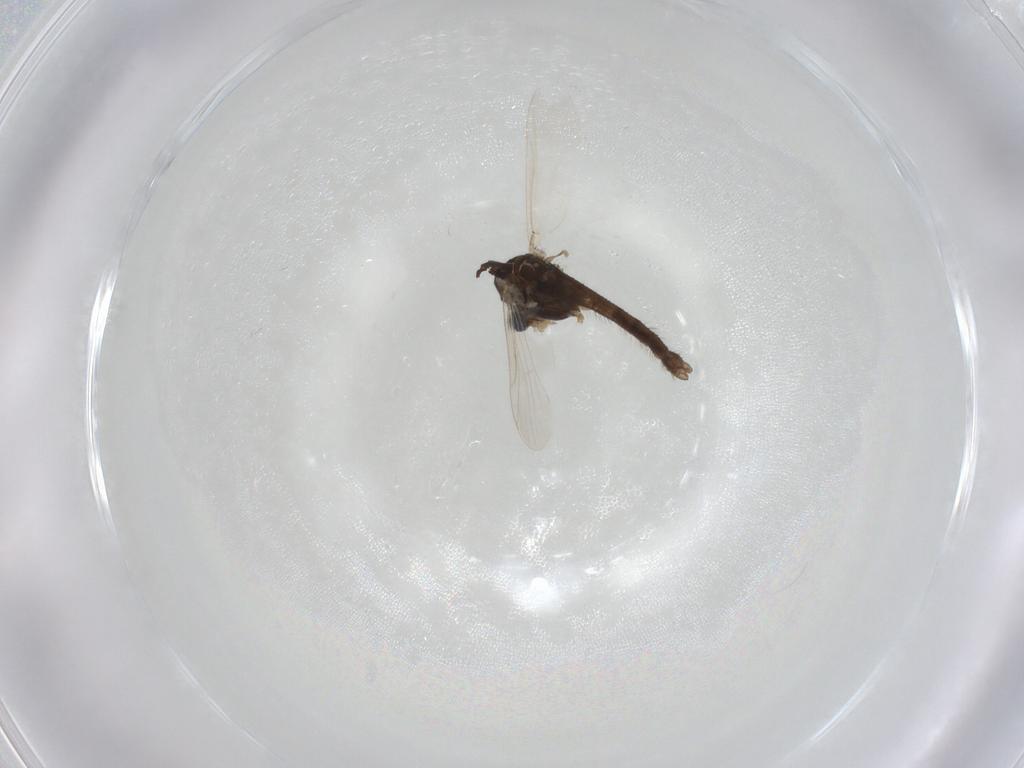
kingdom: Animalia
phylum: Arthropoda
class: Insecta
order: Diptera
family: Chironomidae
